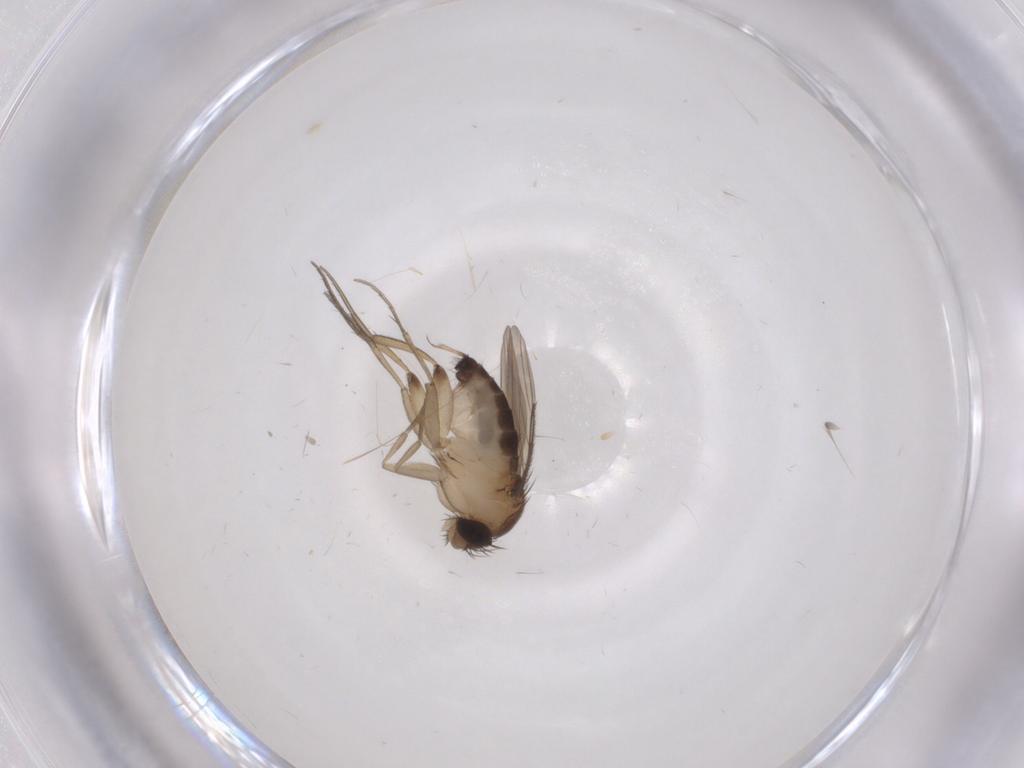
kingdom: Animalia
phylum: Arthropoda
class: Insecta
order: Diptera
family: Phoridae
